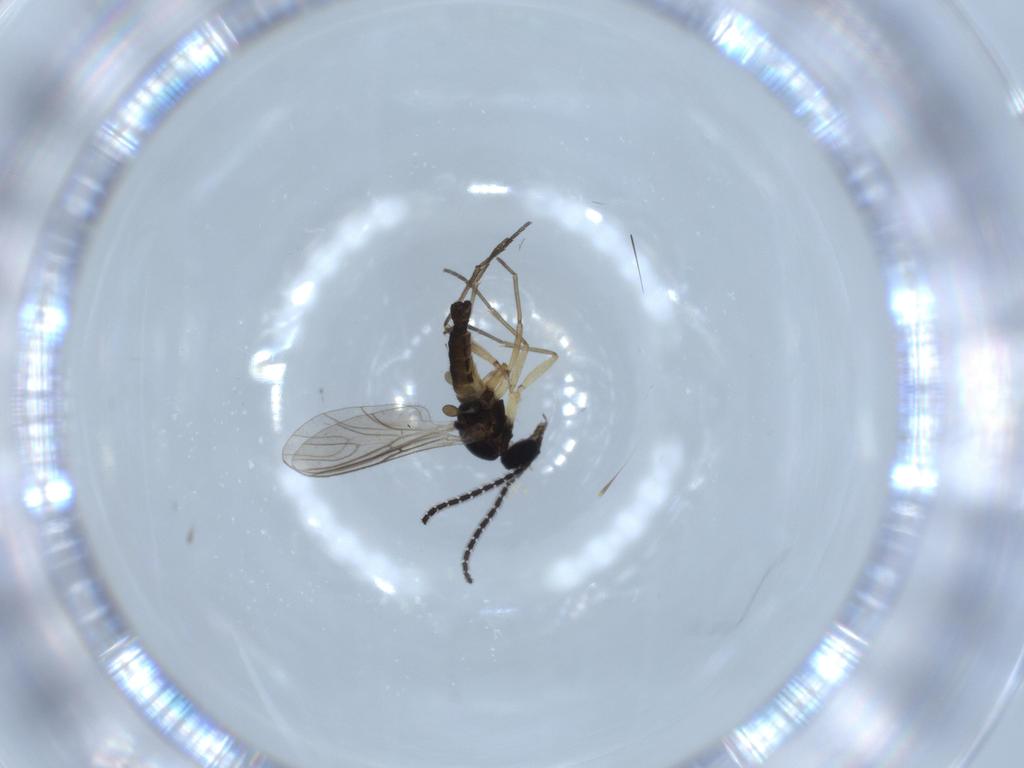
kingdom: Animalia
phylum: Arthropoda
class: Insecta
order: Diptera
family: Sciaridae
